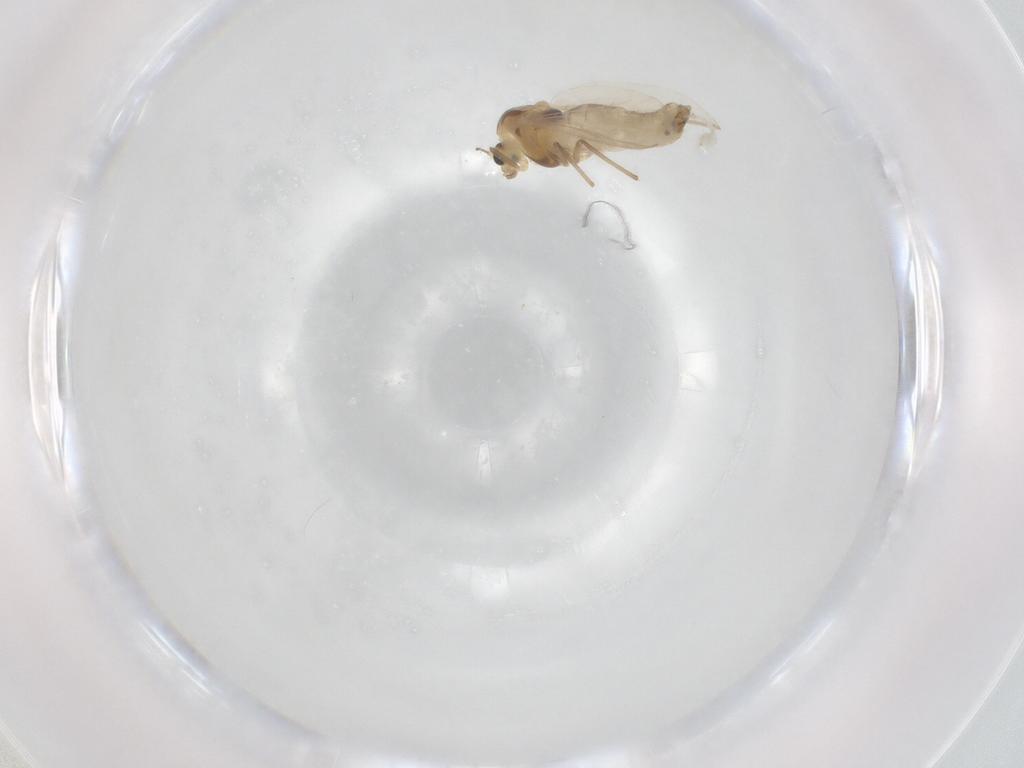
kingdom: Animalia
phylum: Arthropoda
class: Insecta
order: Diptera
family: Chironomidae
